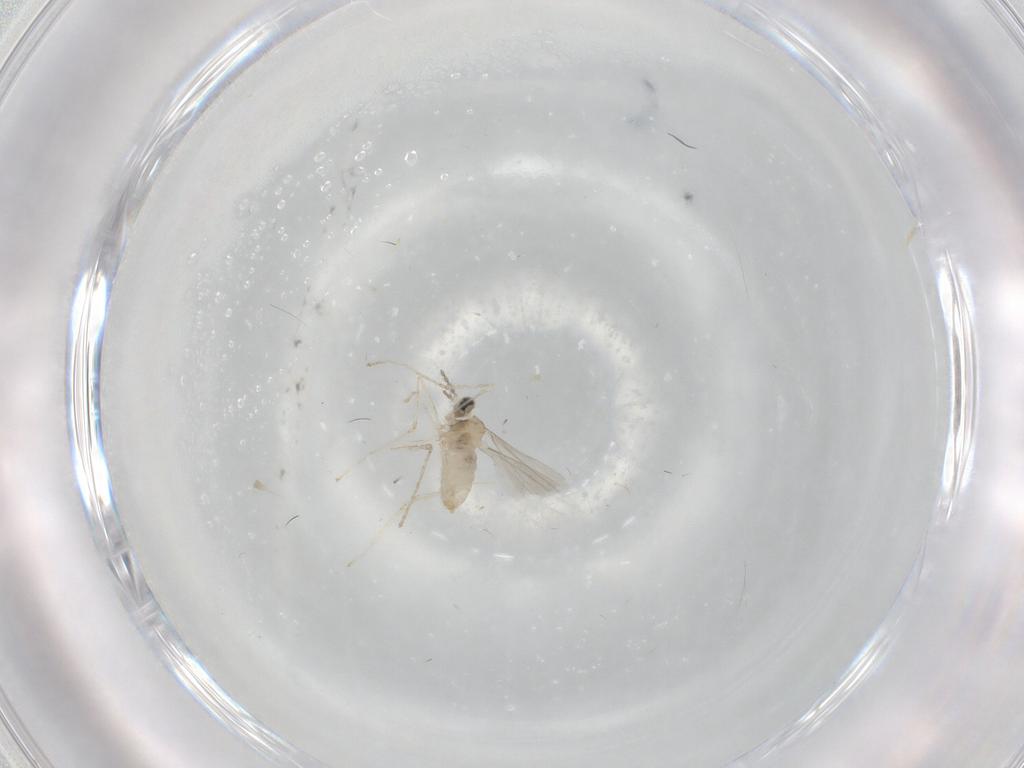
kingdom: Animalia
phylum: Arthropoda
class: Insecta
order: Diptera
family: Cecidomyiidae
